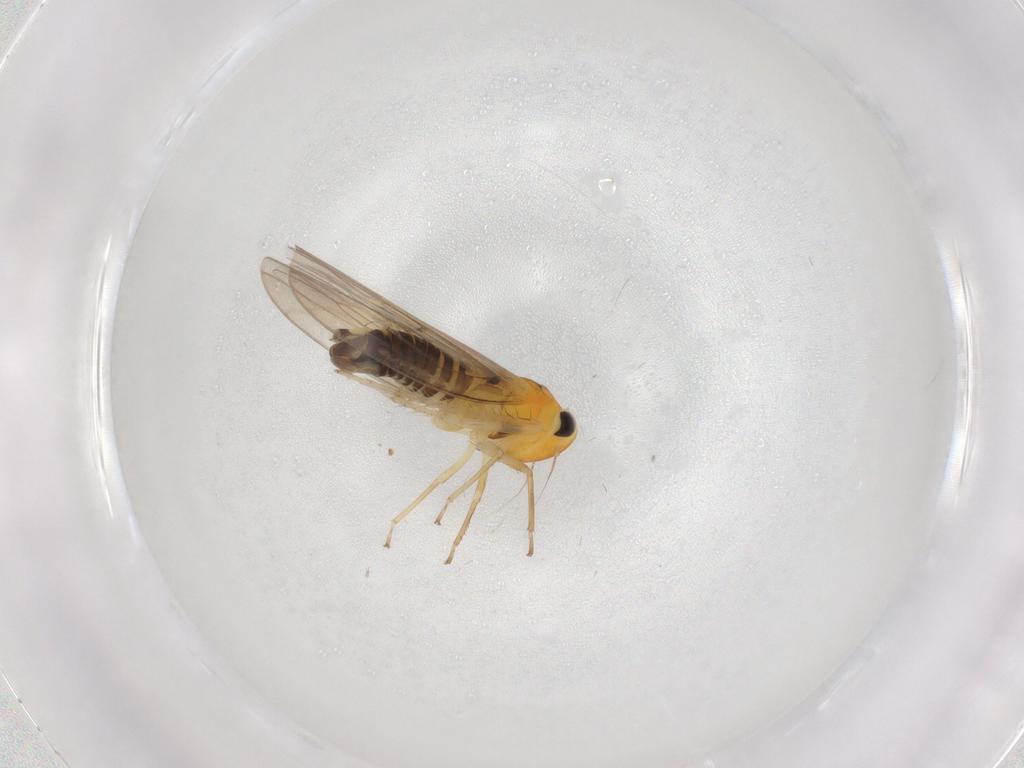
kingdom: Animalia
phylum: Arthropoda
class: Insecta
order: Hemiptera
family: Cicadellidae
